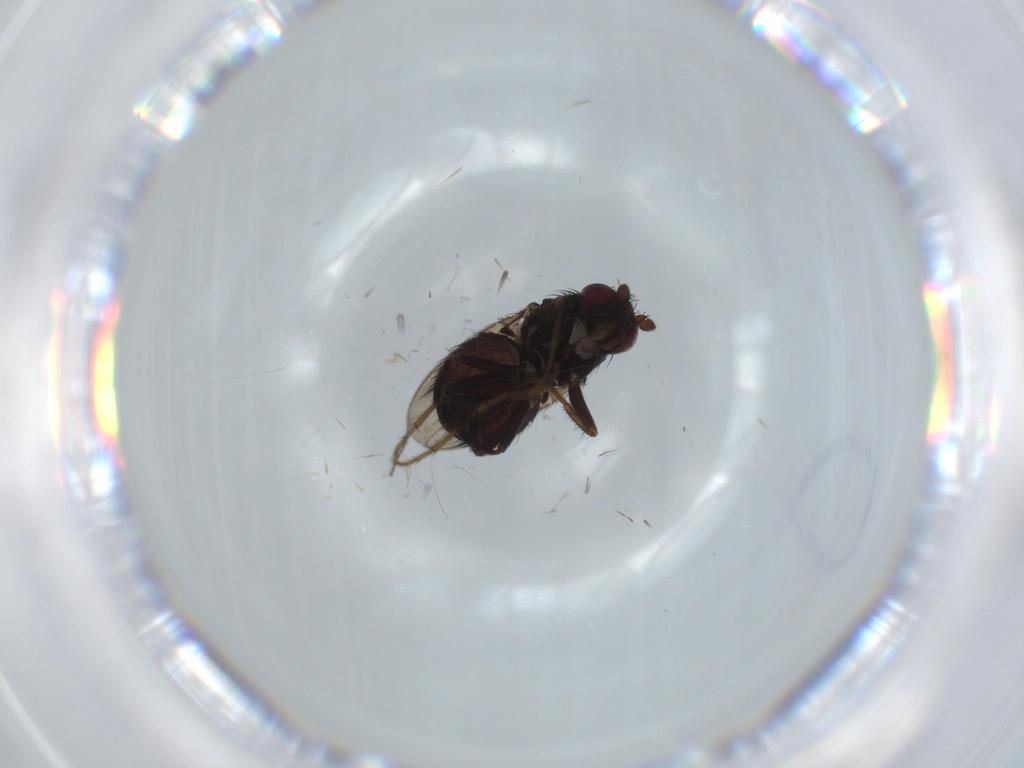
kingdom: Animalia
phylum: Arthropoda
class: Insecta
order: Diptera
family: Sphaeroceridae
